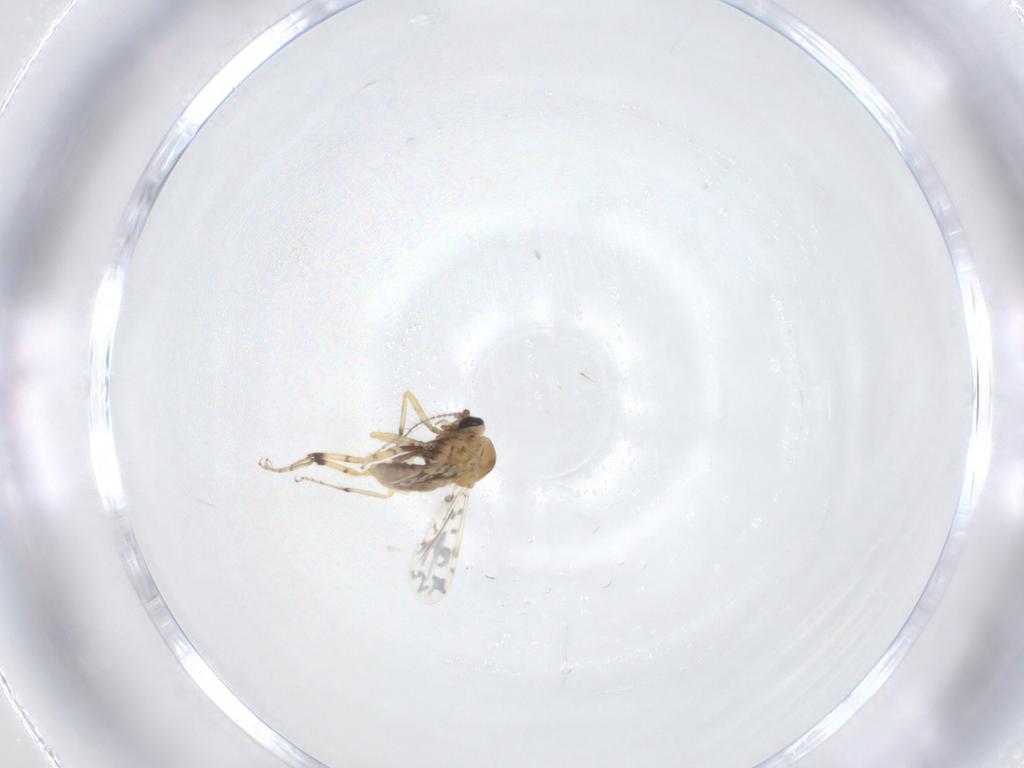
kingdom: Animalia
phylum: Arthropoda
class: Insecta
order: Diptera
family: Ceratopogonidae
